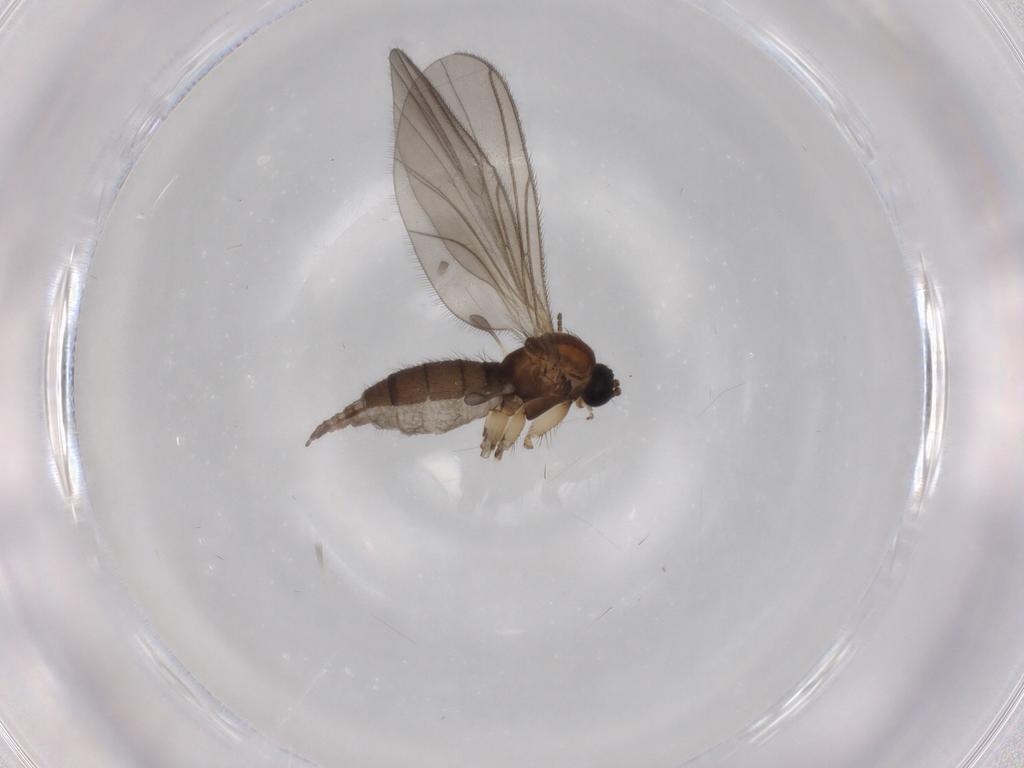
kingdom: Animalia
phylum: Arthropoda
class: Insecta
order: Diptera
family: Sciaridae
